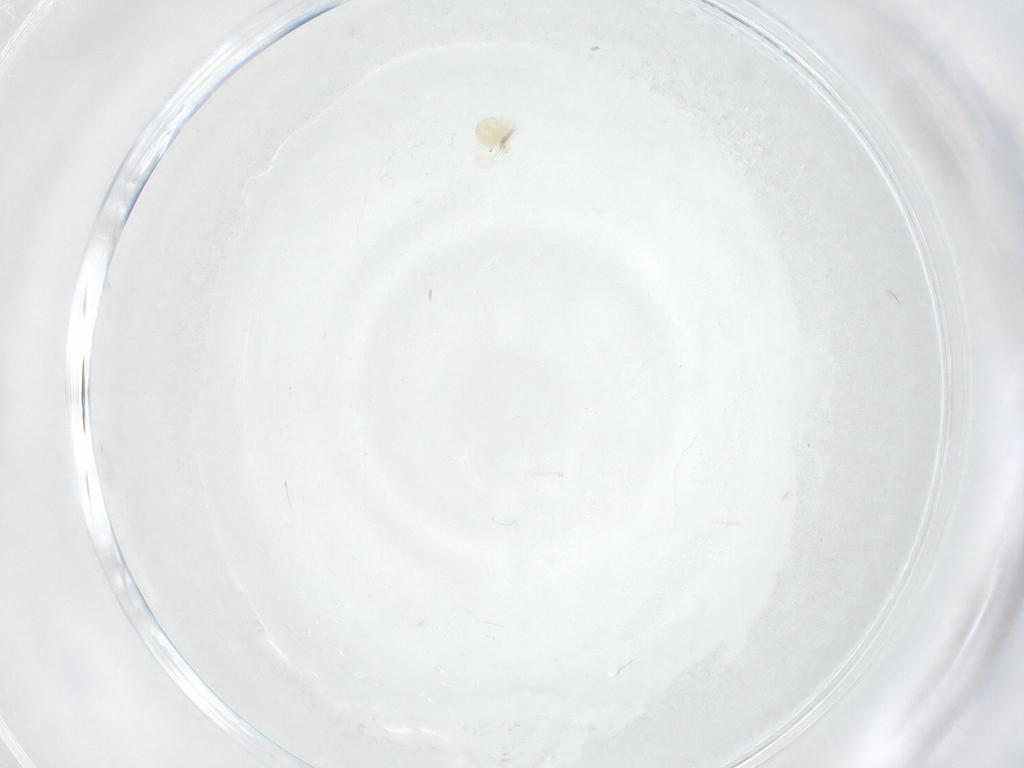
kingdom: Animalia
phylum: Arthropoda
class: Arachnida
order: Trombidiformes
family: Anystidae
